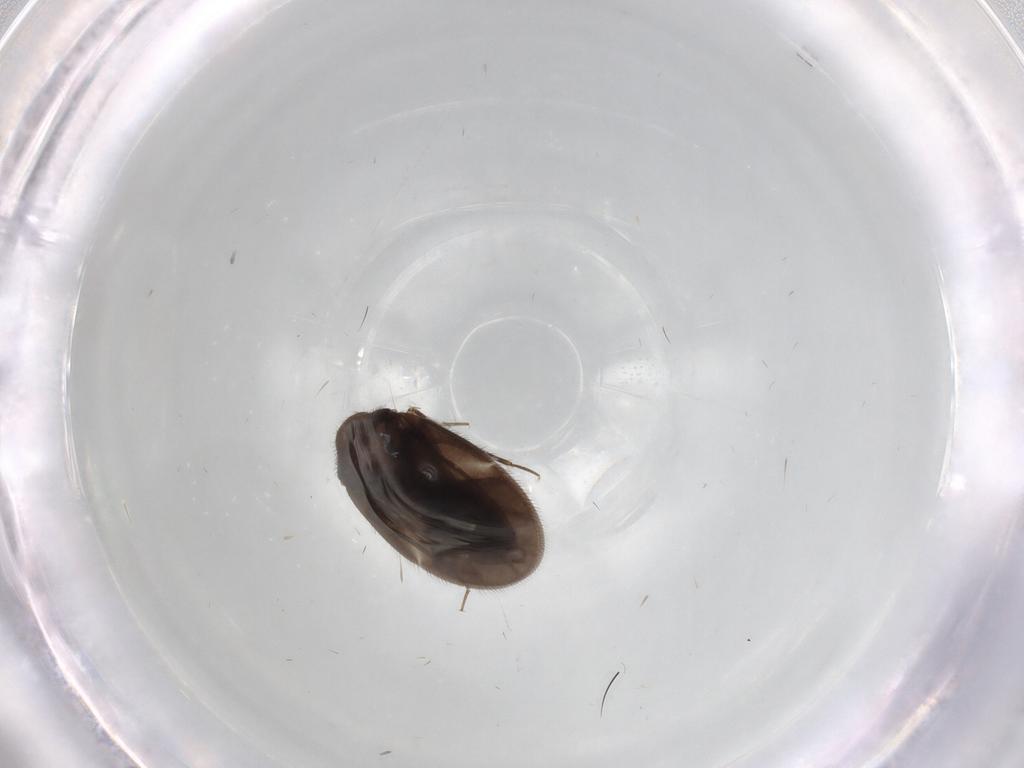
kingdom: Animalia
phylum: Arthropoda
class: Insecta
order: Hemiptera
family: Ceratocombidae
